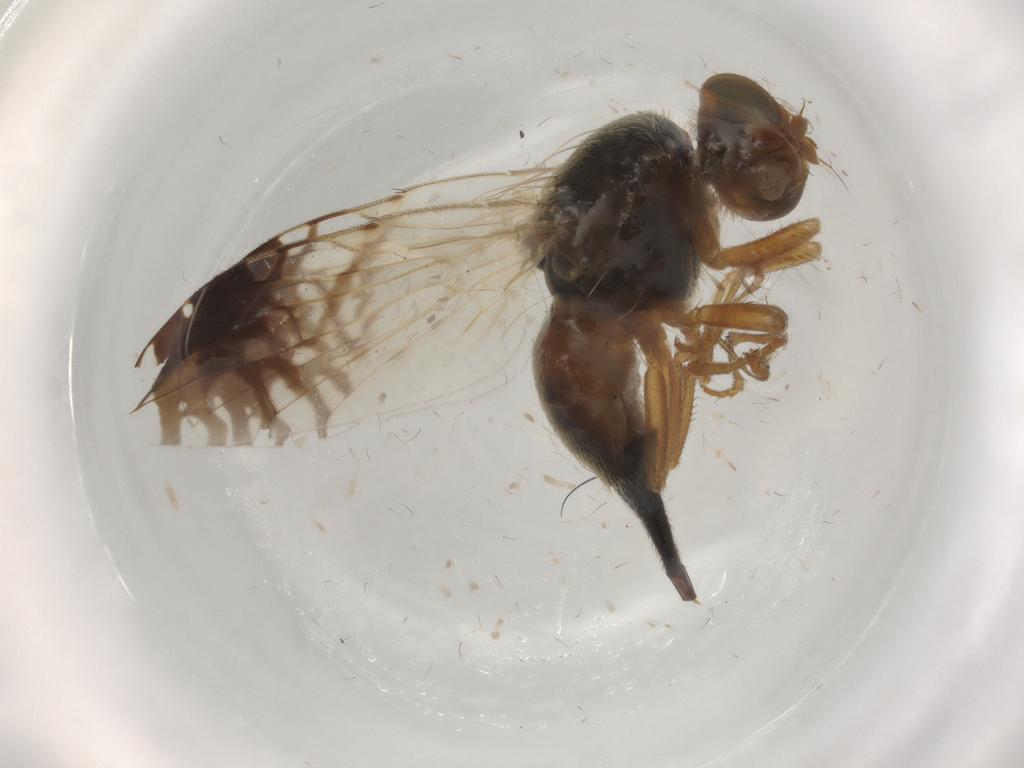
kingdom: Animalia
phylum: Arthropoda
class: Insecta
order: Diptera
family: Tephritidae
